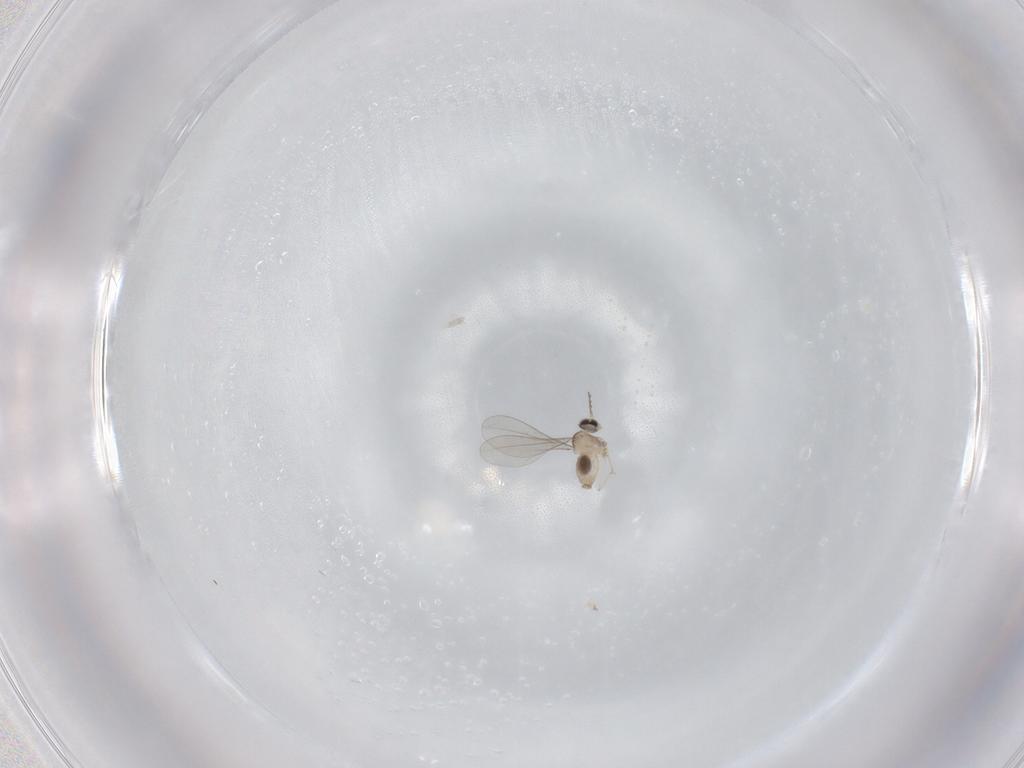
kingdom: Animalia
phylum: Arthropoda
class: Insecta
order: Diptera
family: Cecidomyiidae
